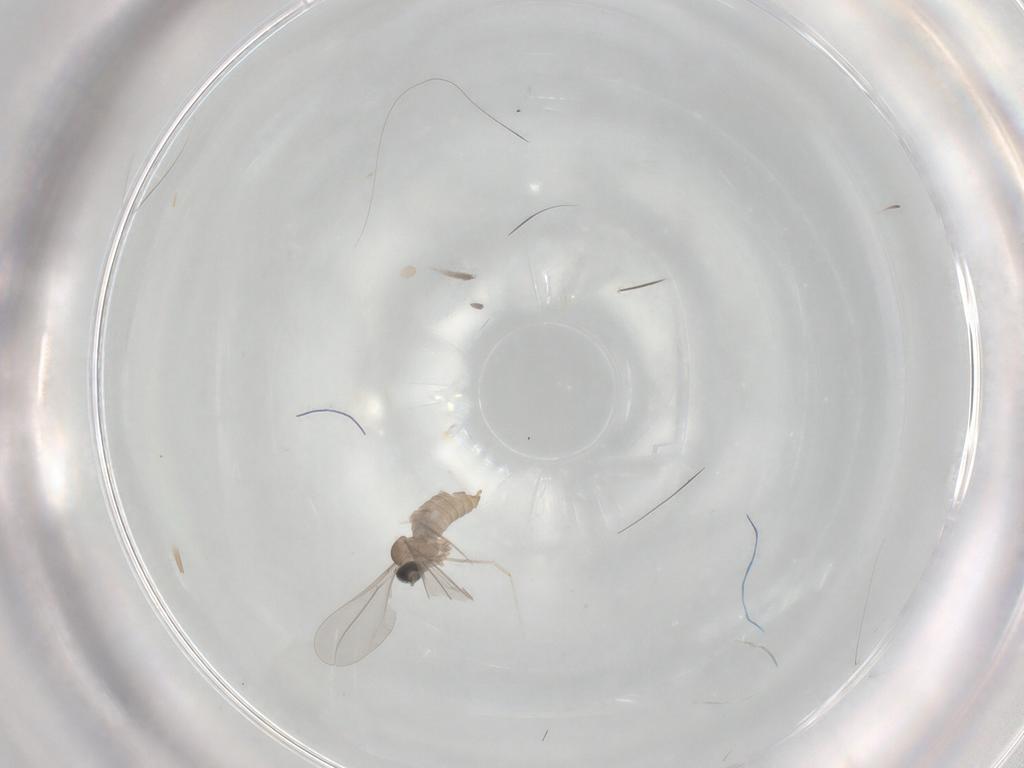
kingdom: Animalia
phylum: Arthropoda
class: Insecta
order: Diptera
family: Cecidomyiidae
